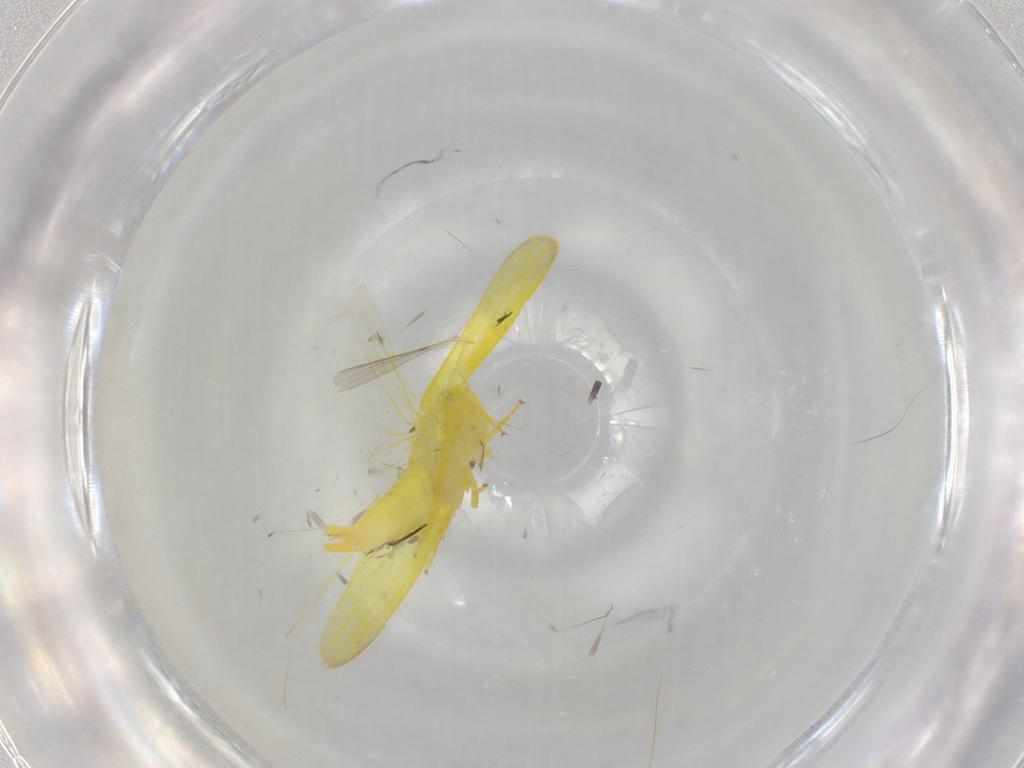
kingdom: Animalia
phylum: Arthropoda
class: Insecta
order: Hemiptera
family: Cicadellidae
